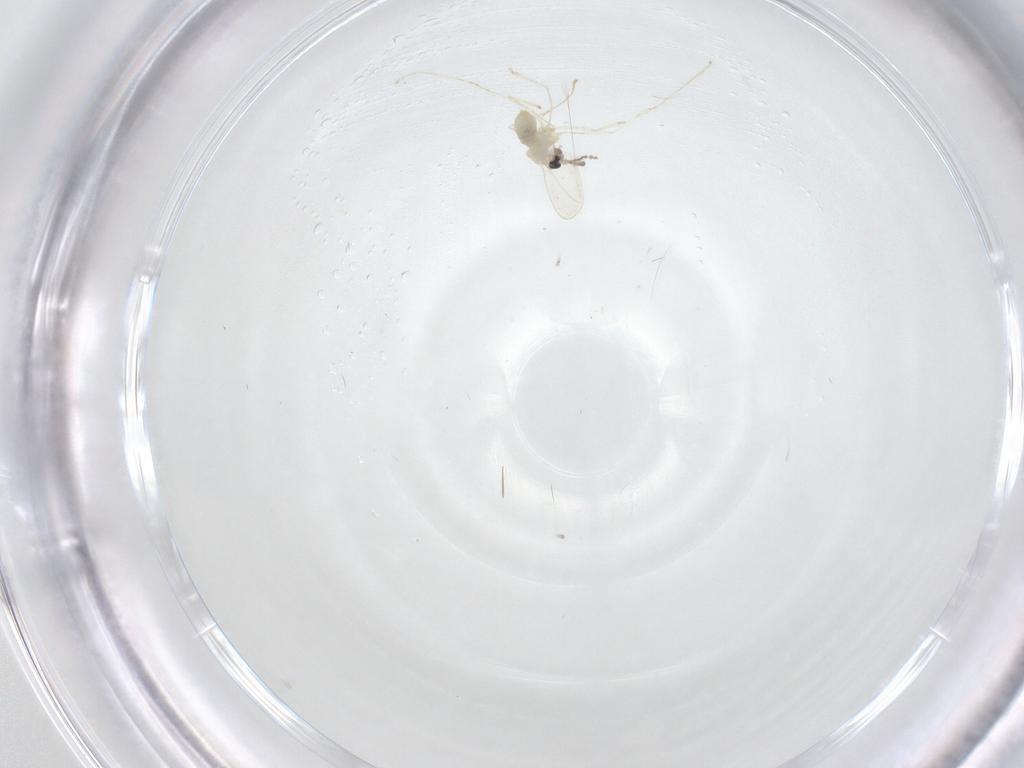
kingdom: Animalia
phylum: Arthropoda
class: Insecta
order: Diptera
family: Cecidomyiidae
